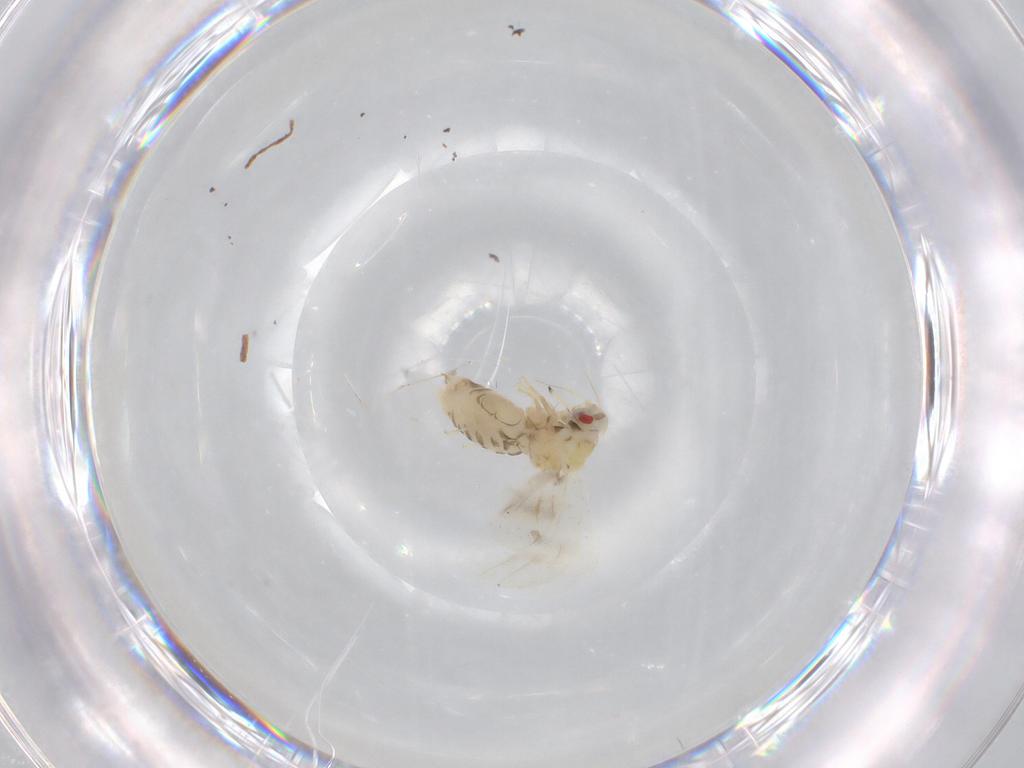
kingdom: Animalia
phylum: Arthropoda
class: Insecta
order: Hemiptera
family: Aleyrodidae
